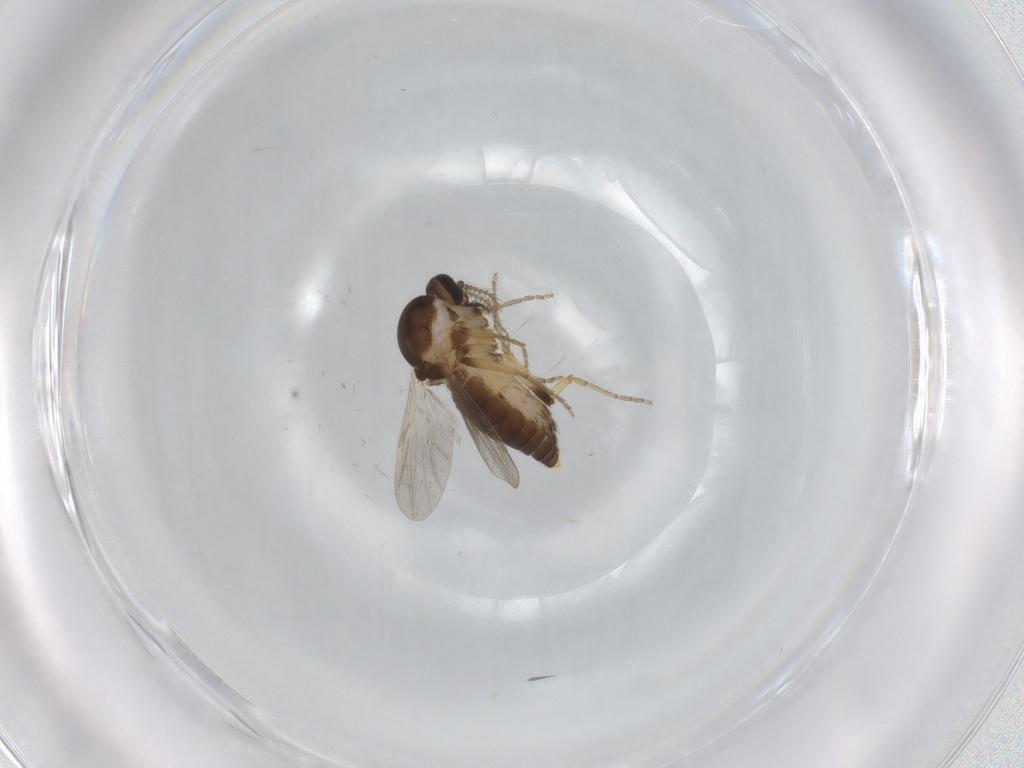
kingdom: Animalia
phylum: Arthropoda
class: Insecta
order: Diptera
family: Ceratopogonidae
